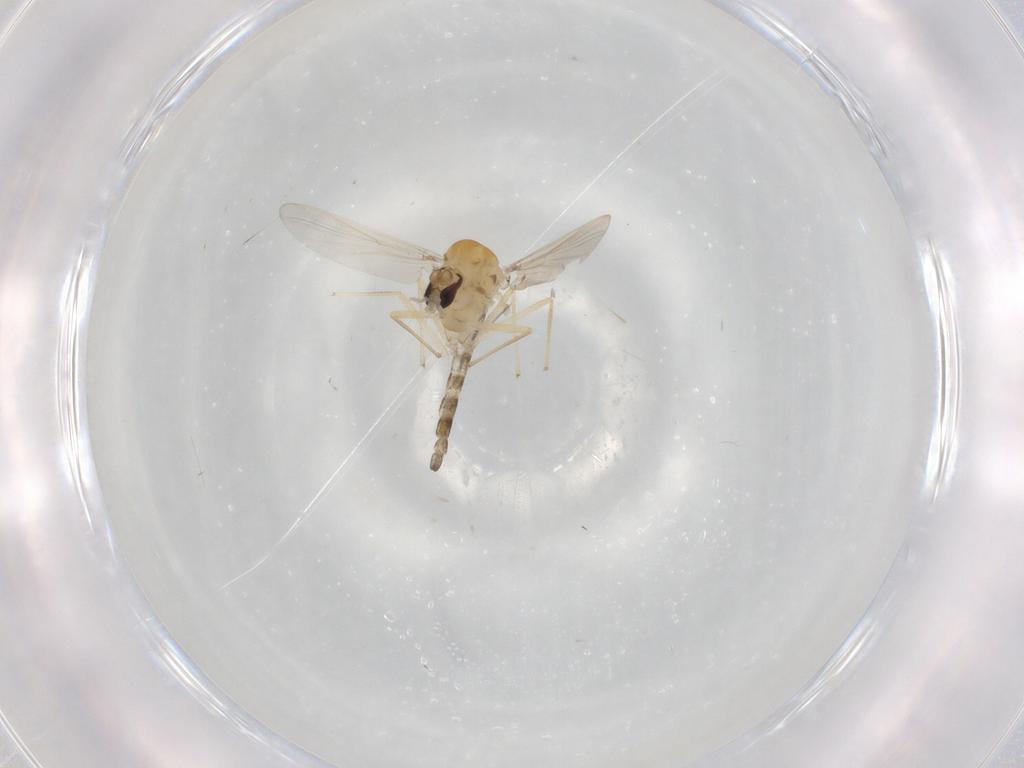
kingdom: Animalia
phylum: Arthropoda
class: Insecta
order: Diptera
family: Chironomidae
